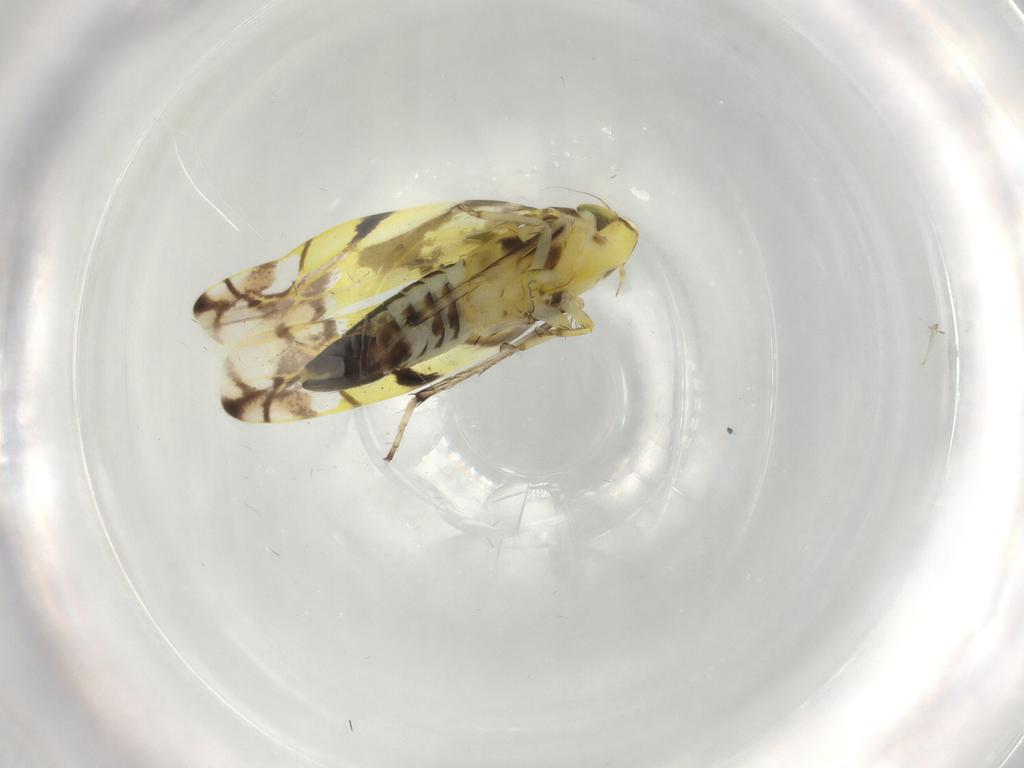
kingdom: Animalia
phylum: Arthropoda
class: Insecta
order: Hemiptera
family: Cicadellidae
